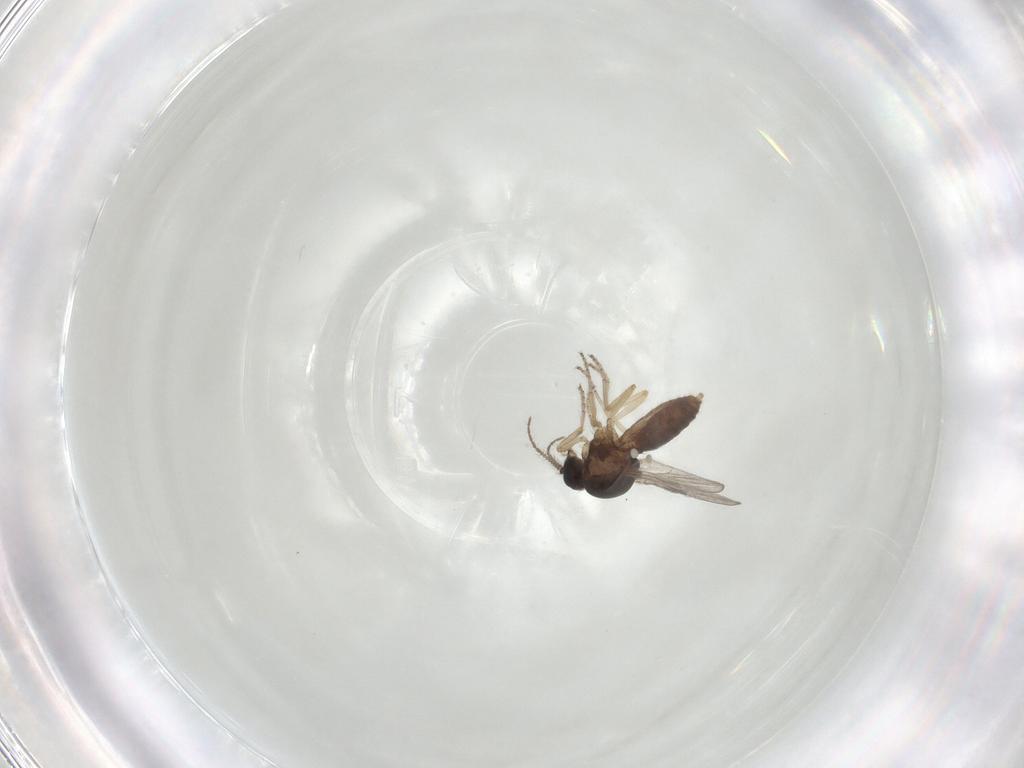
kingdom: Animalia
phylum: Arthropoda
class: Insecta
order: Diptera
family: Ceratopogonidae
